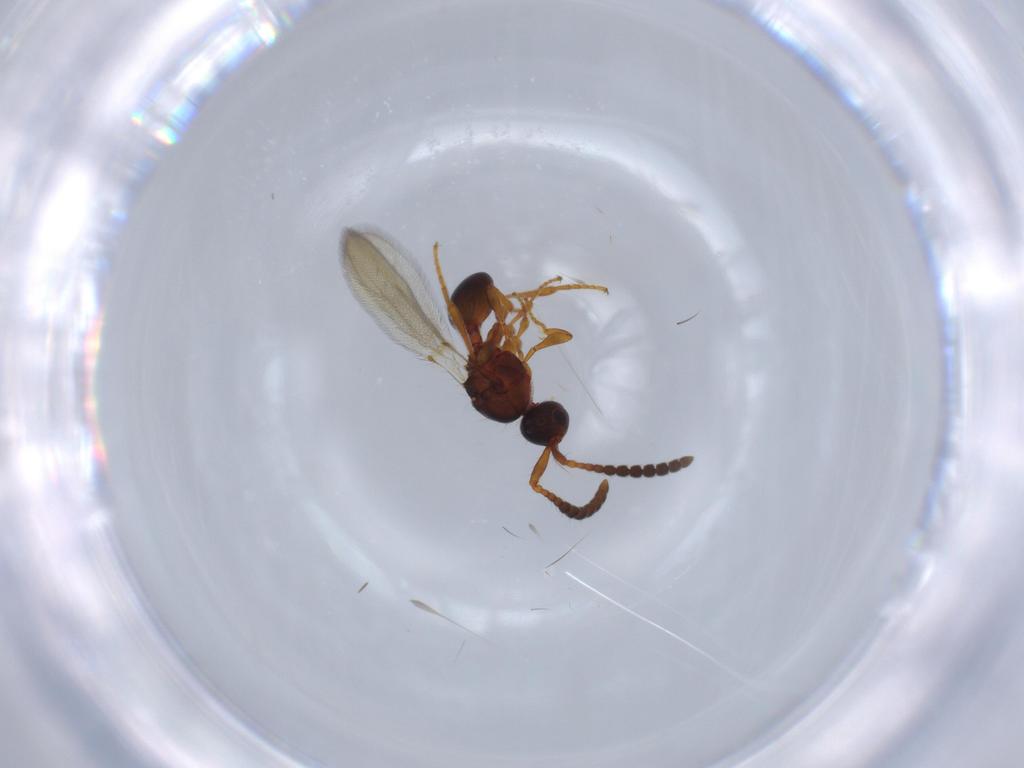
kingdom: Animalia
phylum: Arthropoda
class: Insecta
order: Hymenoptera
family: Diapriidae
